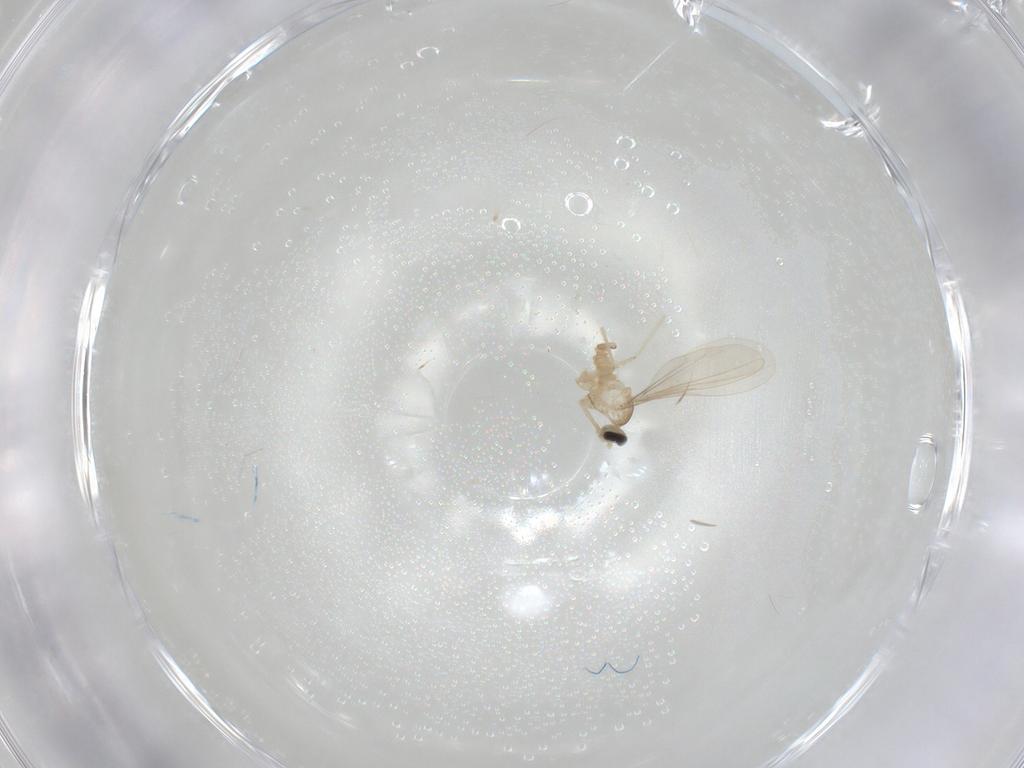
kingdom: Animalia
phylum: Arthropoda
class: Insecta
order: Diptera
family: Cecidomyiidae
